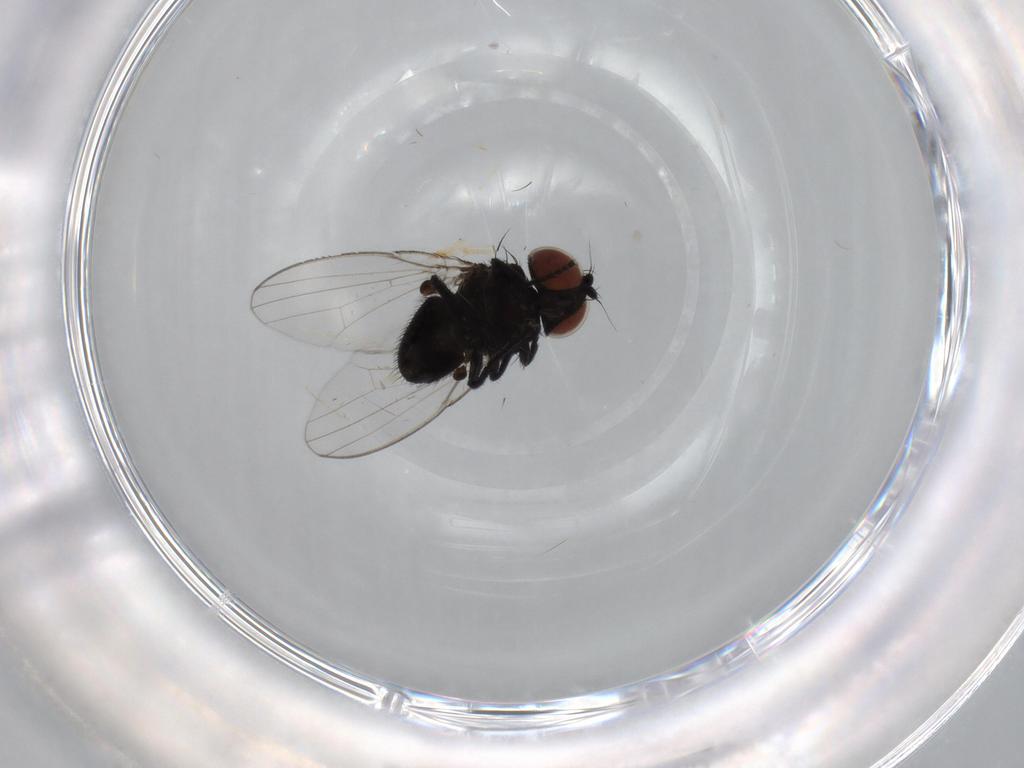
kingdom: Animalia
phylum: Arthropoda
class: Insecta
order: Diptera
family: Milichiidae
